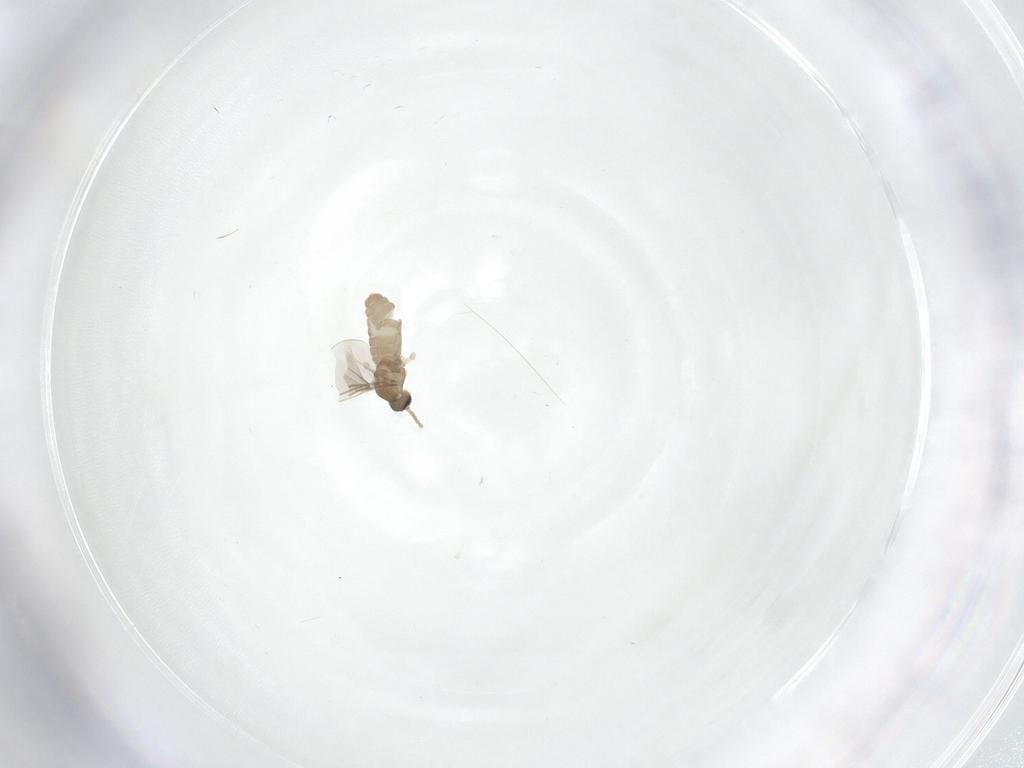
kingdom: Animalia
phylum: Arthropoda
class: Insecta
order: Diptera
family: Cecidomyiidae
